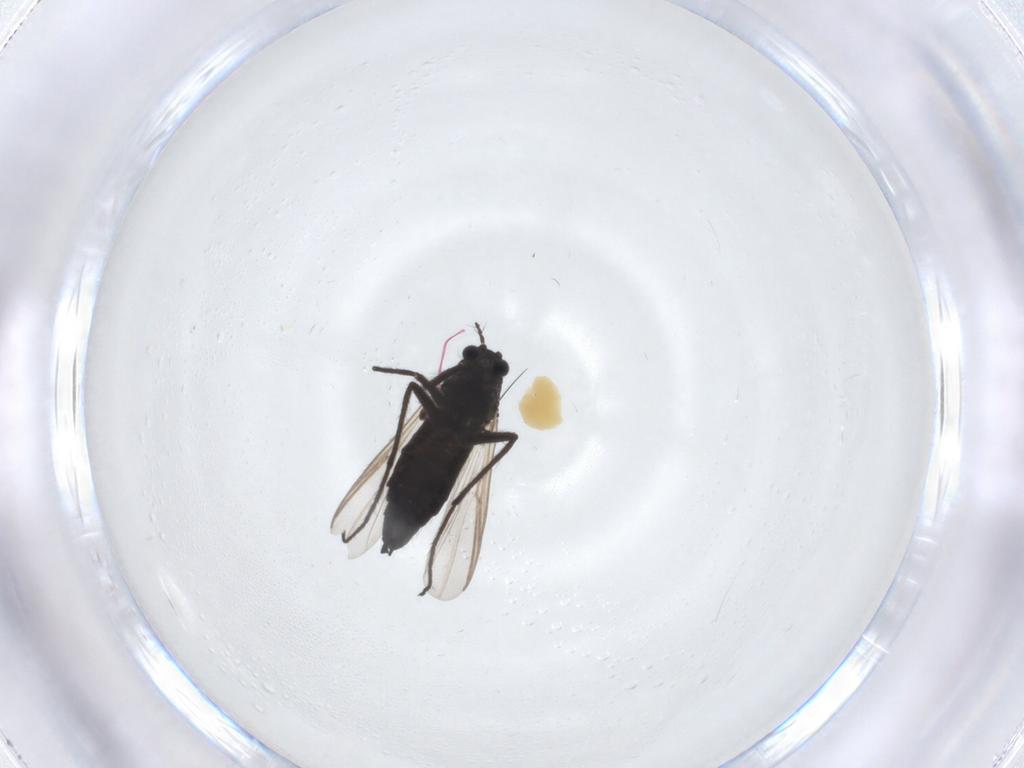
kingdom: Animalia
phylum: Arthropoda
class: Insecta
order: Diptera
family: Chironomidae
